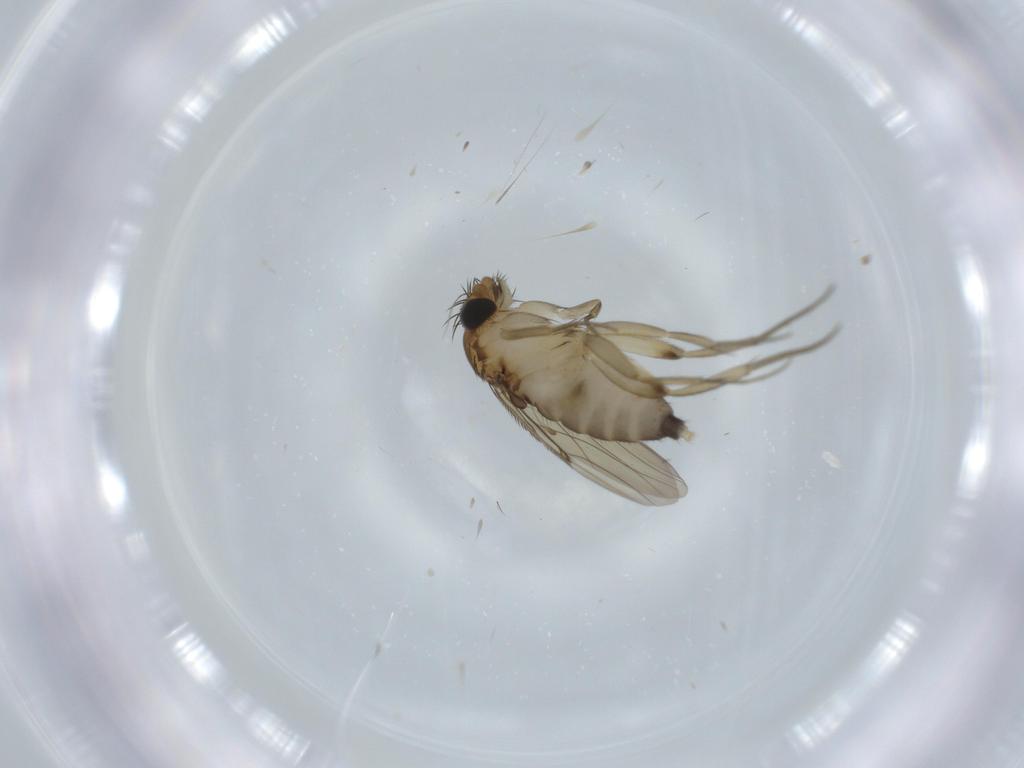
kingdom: Animalia
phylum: Arthropoda
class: Insecta
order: Diptera
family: Phoridae
